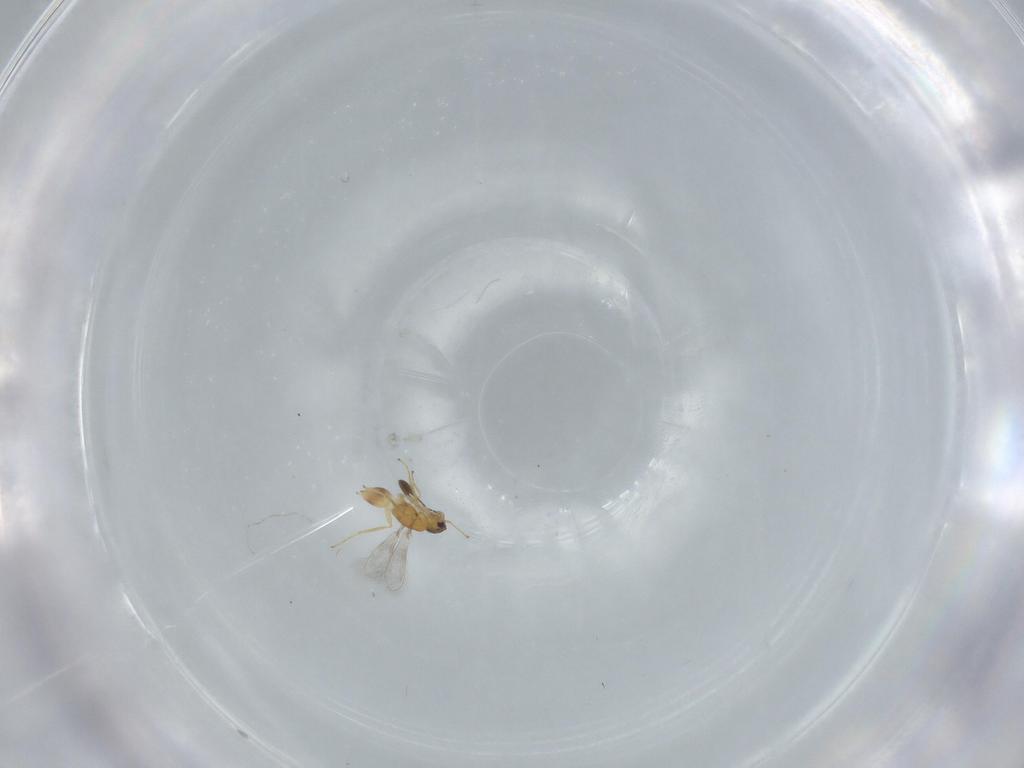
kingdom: Animalia
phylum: Arthropoda
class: Insecta
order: Hymenoptera
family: Mymaridae
